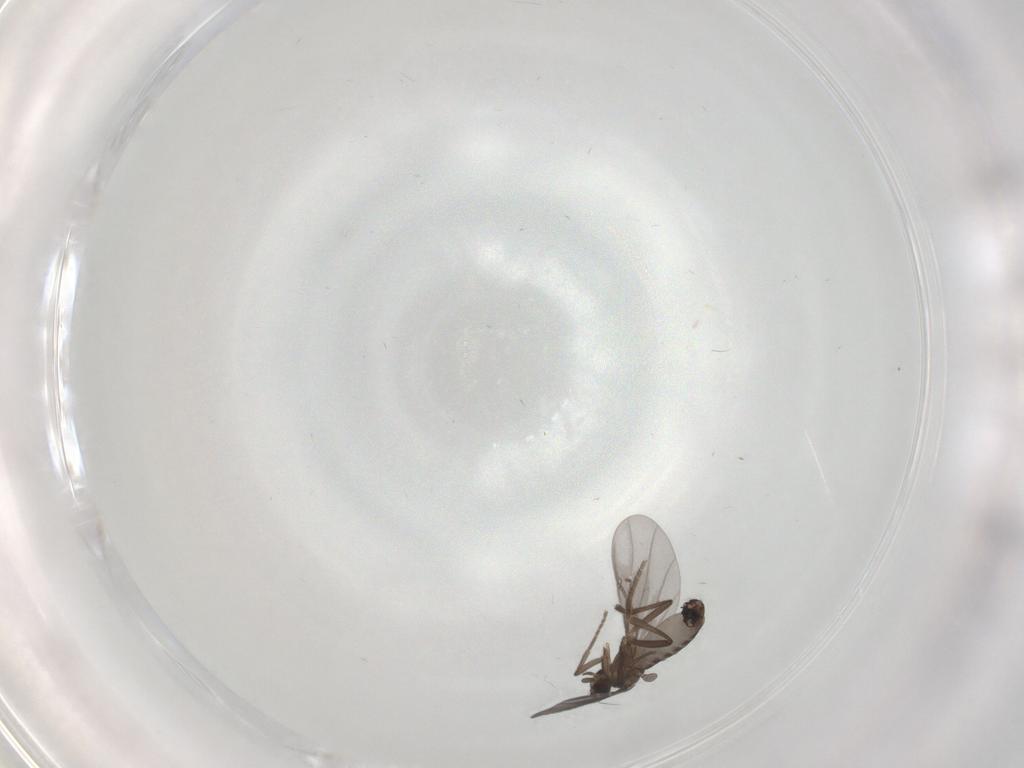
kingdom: Animalia
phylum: Arthropoda
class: Insecta
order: Diptera
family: Phoridae
